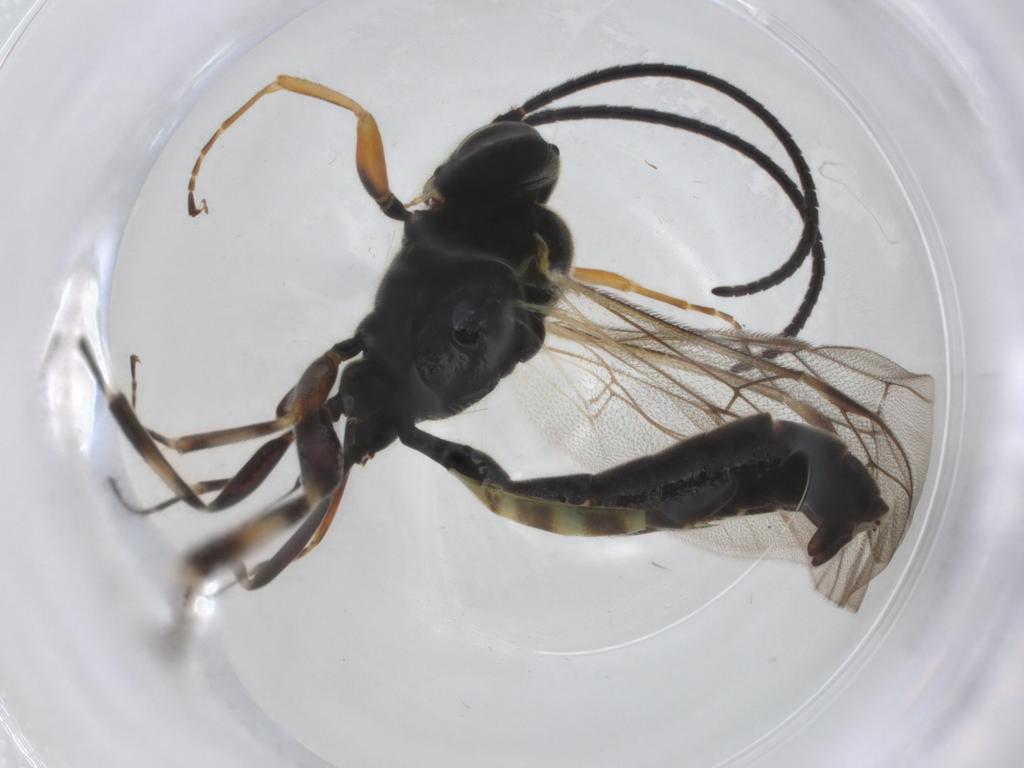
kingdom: Animalia
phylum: Arthropoda
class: Insecta
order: Hymenoptera
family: Ichneumonidae
